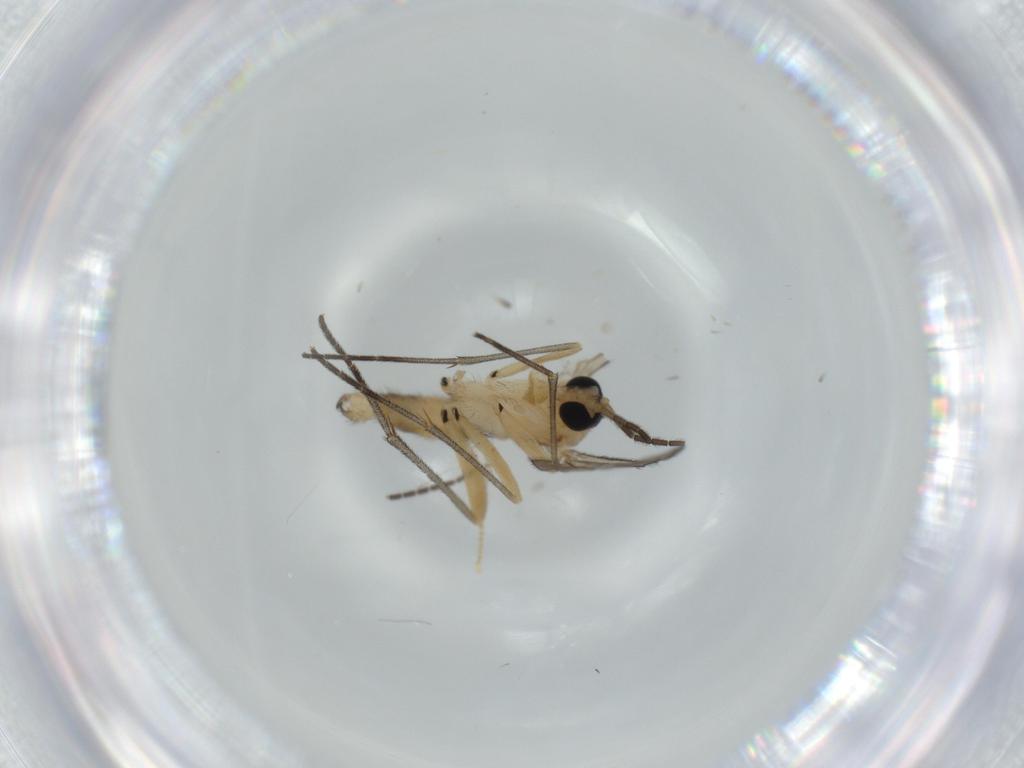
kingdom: Animalia
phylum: Arthropoda
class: Insecta
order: Diptera
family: Sciaridae
